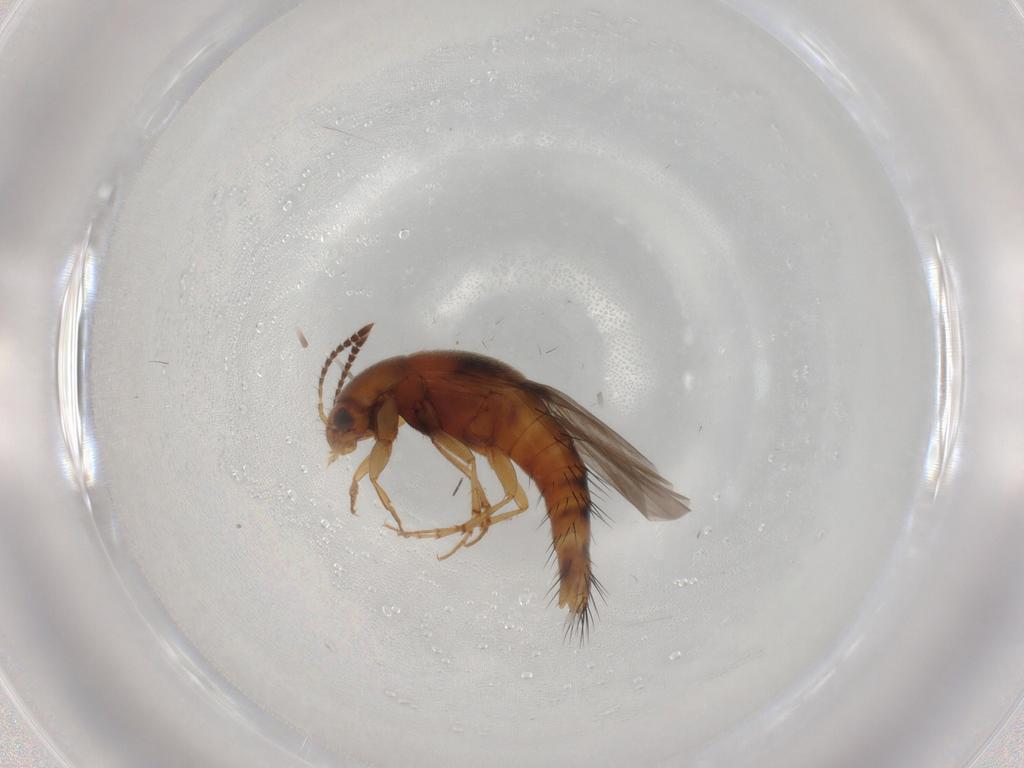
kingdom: Animalia
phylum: Arthropoda
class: Insecta
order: Coleoptera
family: Staphylinidae
